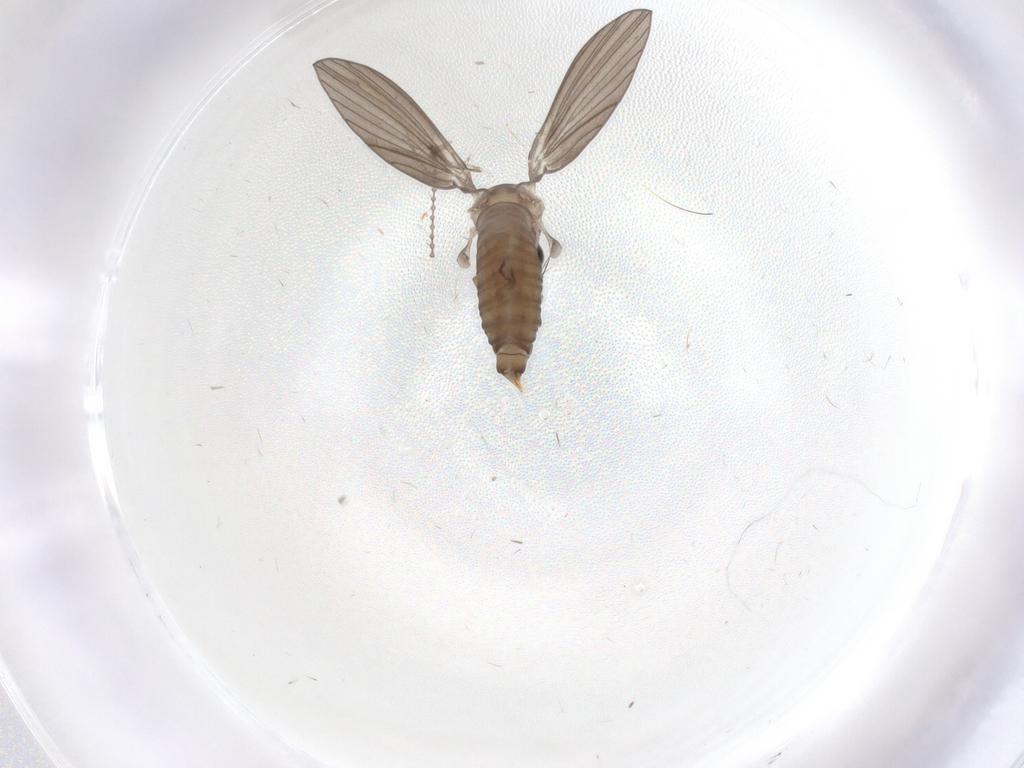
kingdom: Animalia
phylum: Arthropoda
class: Insecta
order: Diptera
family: Psychodidae
